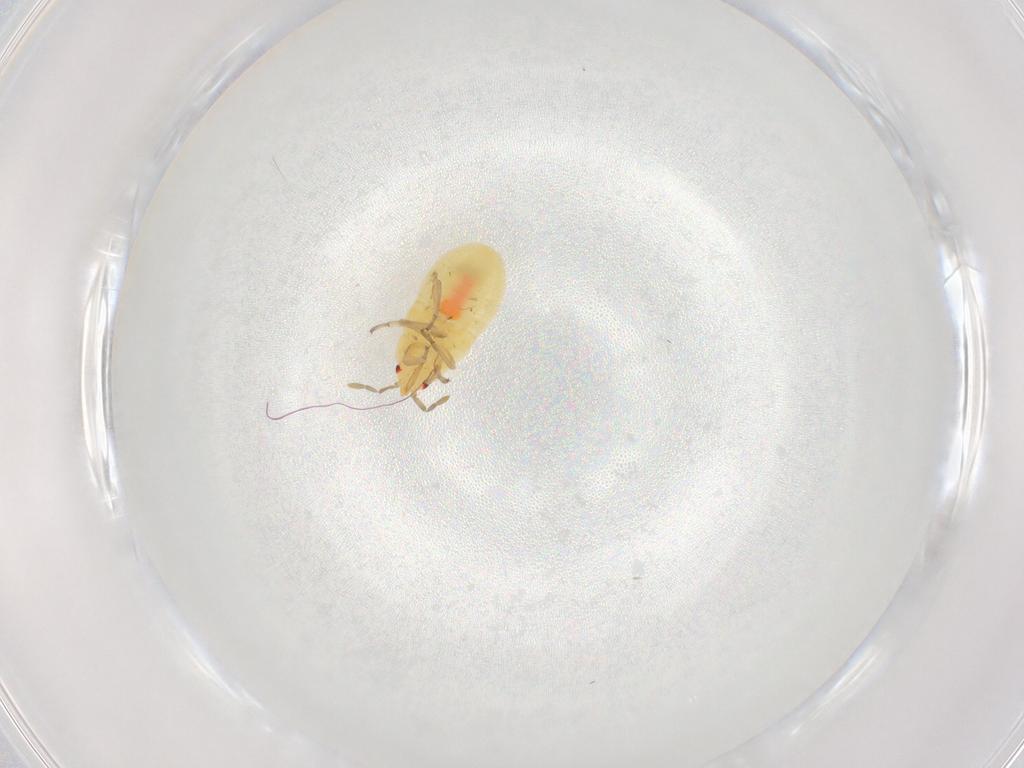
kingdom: Animalia
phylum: Arthropoda
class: Insecta
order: Hemiptera
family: Anthocoridae
